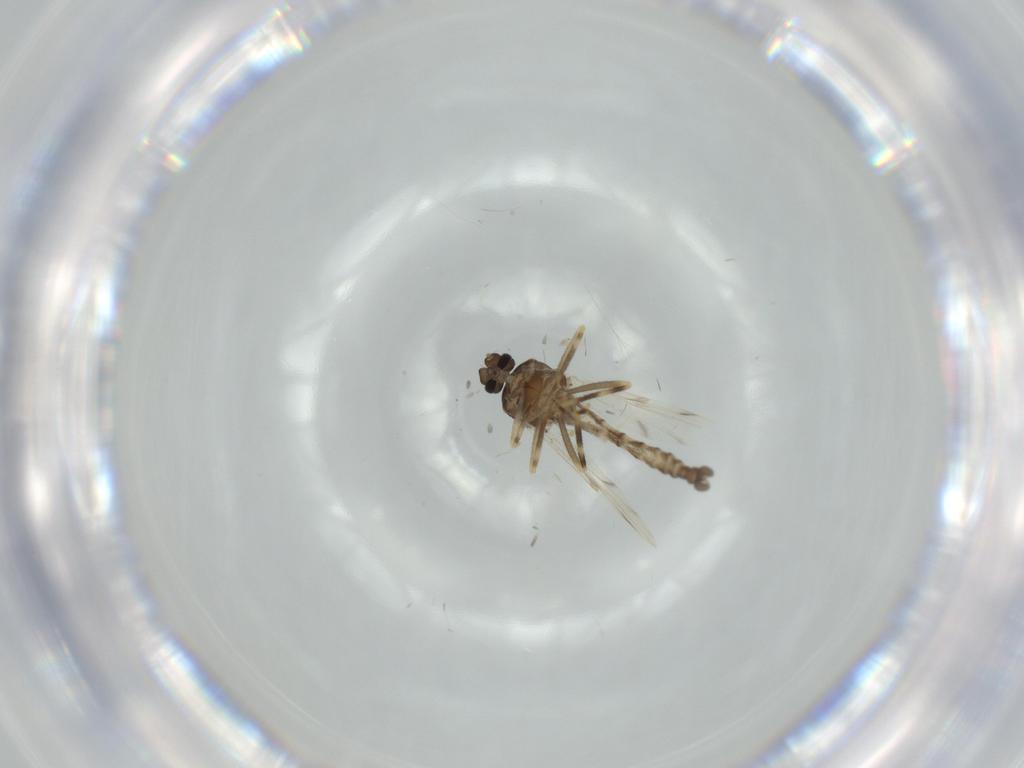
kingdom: Animalia
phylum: Arthropoda
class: Insecta
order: Diptera
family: Ceratopogonidae
